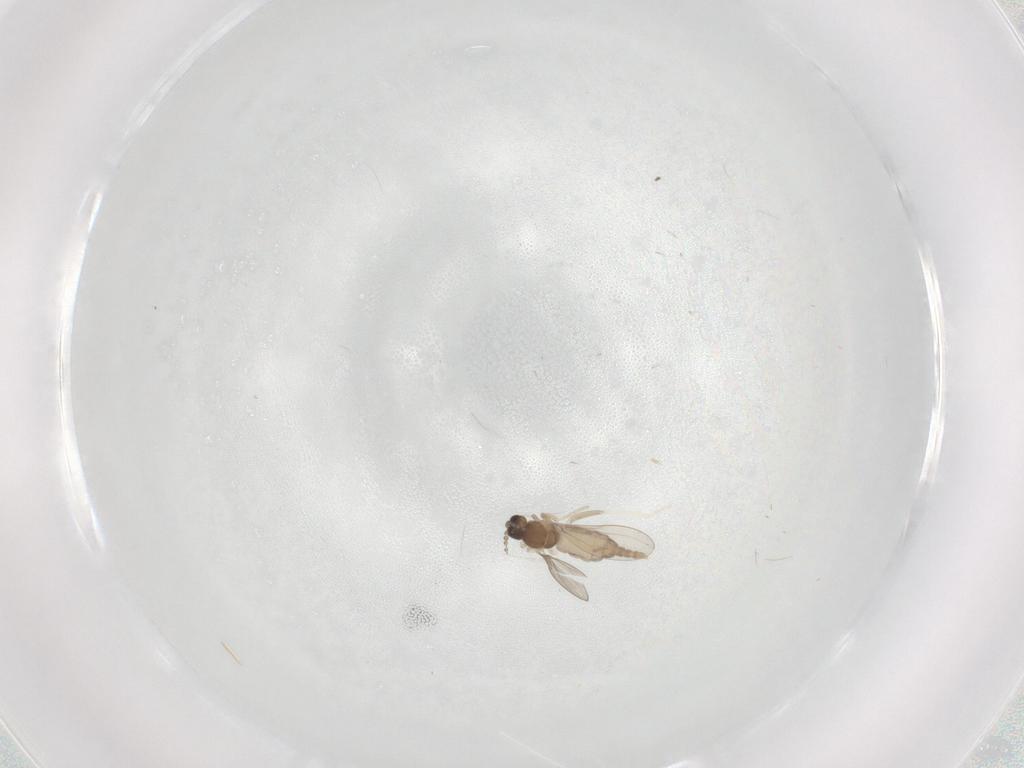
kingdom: Animalia
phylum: Arthropoda
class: Insecta
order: Diptera
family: Cecidomyiidae
